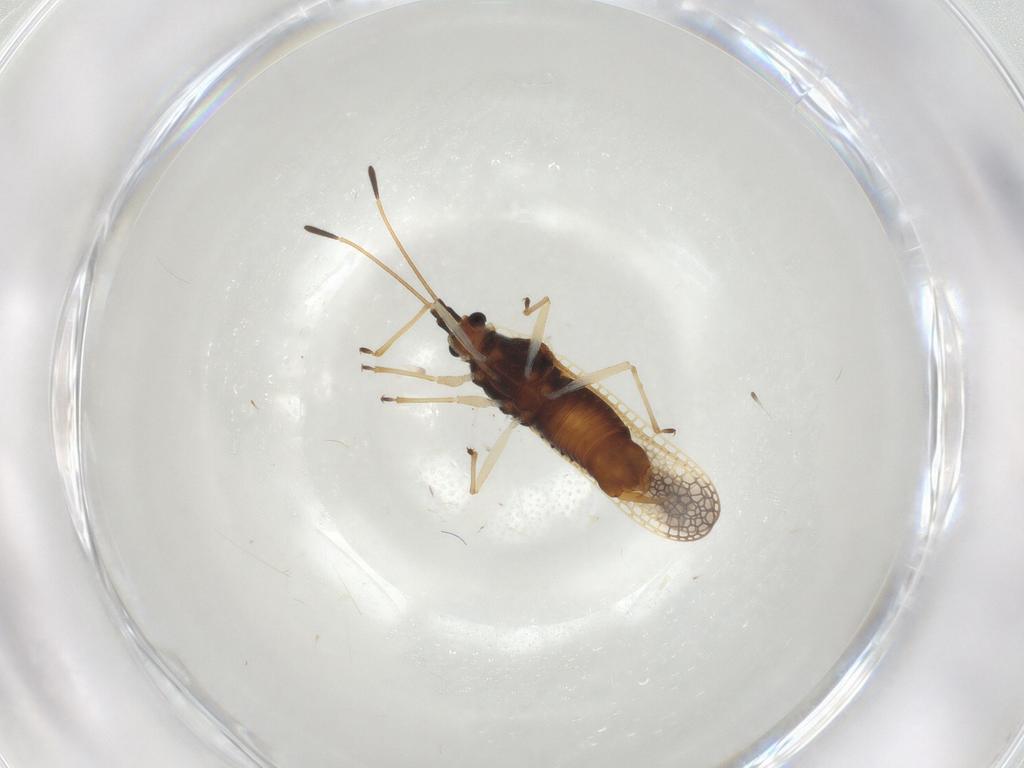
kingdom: Animalia
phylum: Arthropoda
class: Insecta
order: Hemiptera
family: Tingidae
